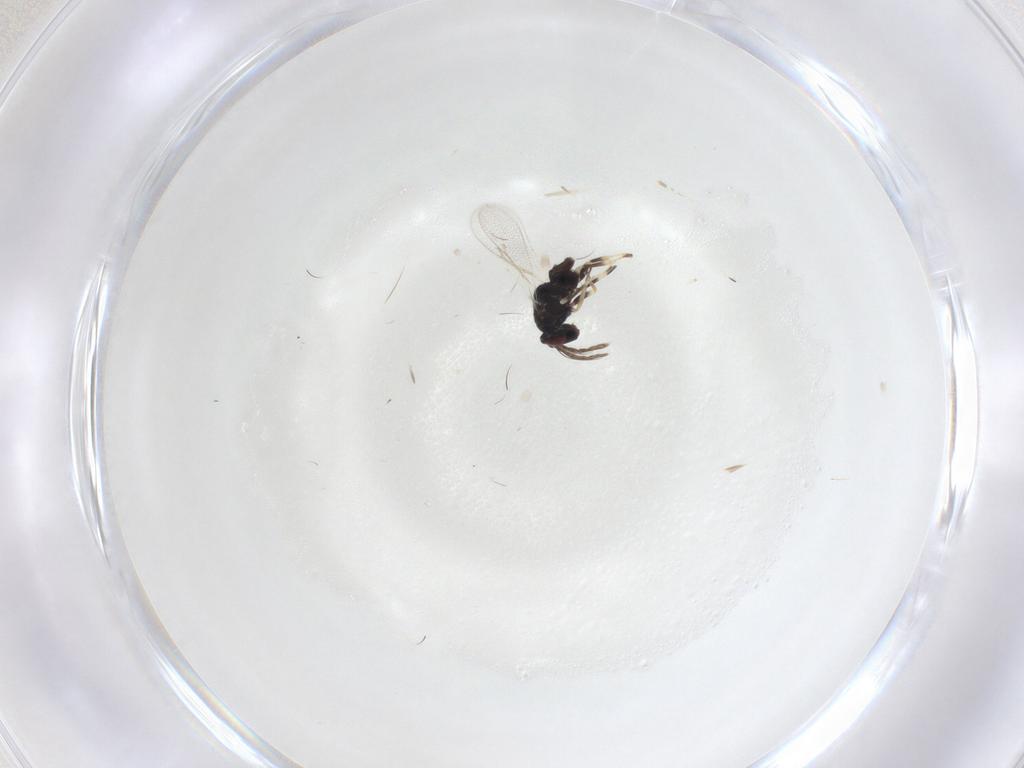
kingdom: Animalia
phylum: Arthropoda
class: Insecta
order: Hymenoptera
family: Eulophidae
